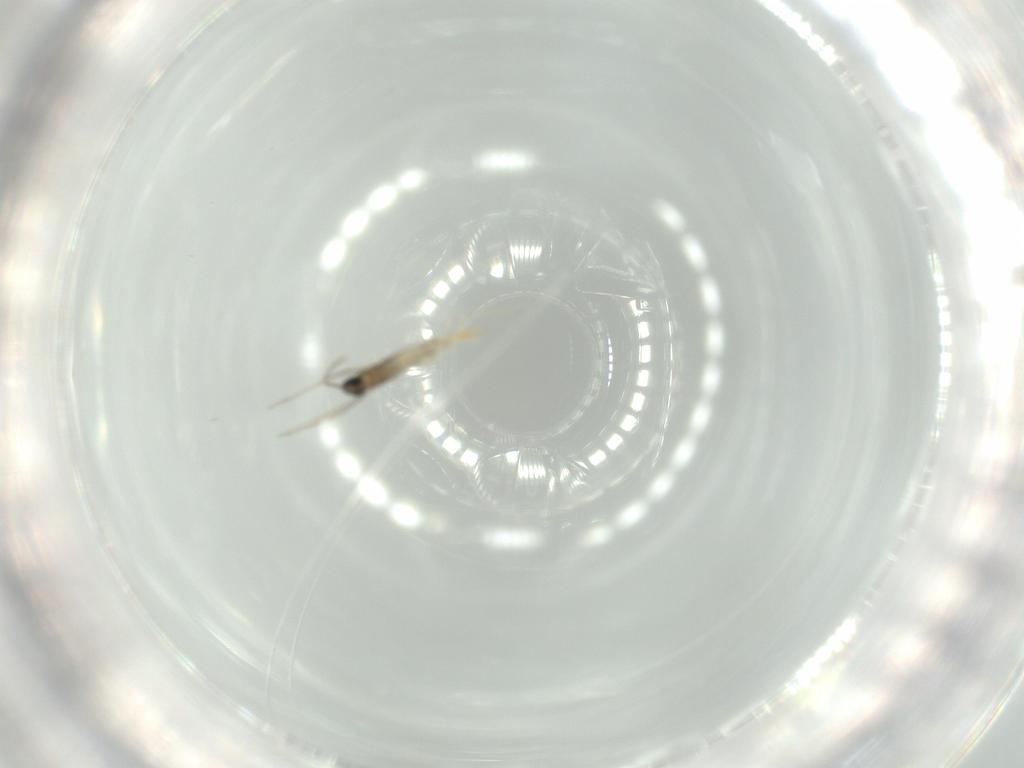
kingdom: Animalia
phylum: Arthropoda
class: Insecta
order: Diptera
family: Cecidomyiidae
